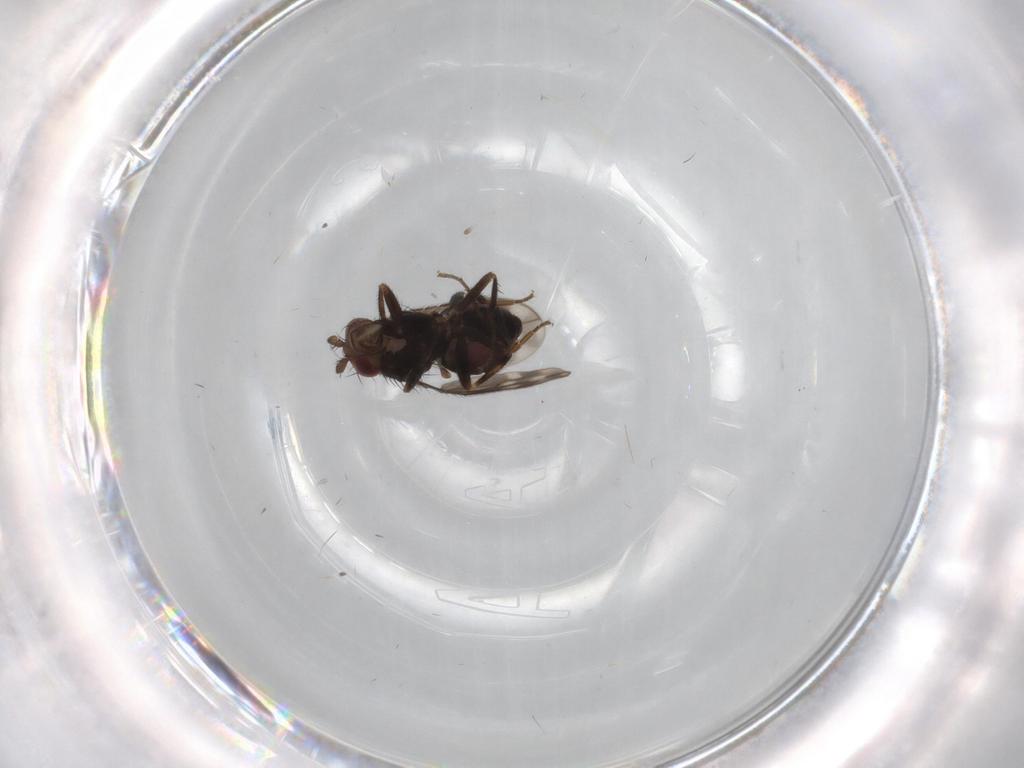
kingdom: Animalia
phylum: Arthropoda
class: Insecta
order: Diptera
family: Sphaeroceridae
